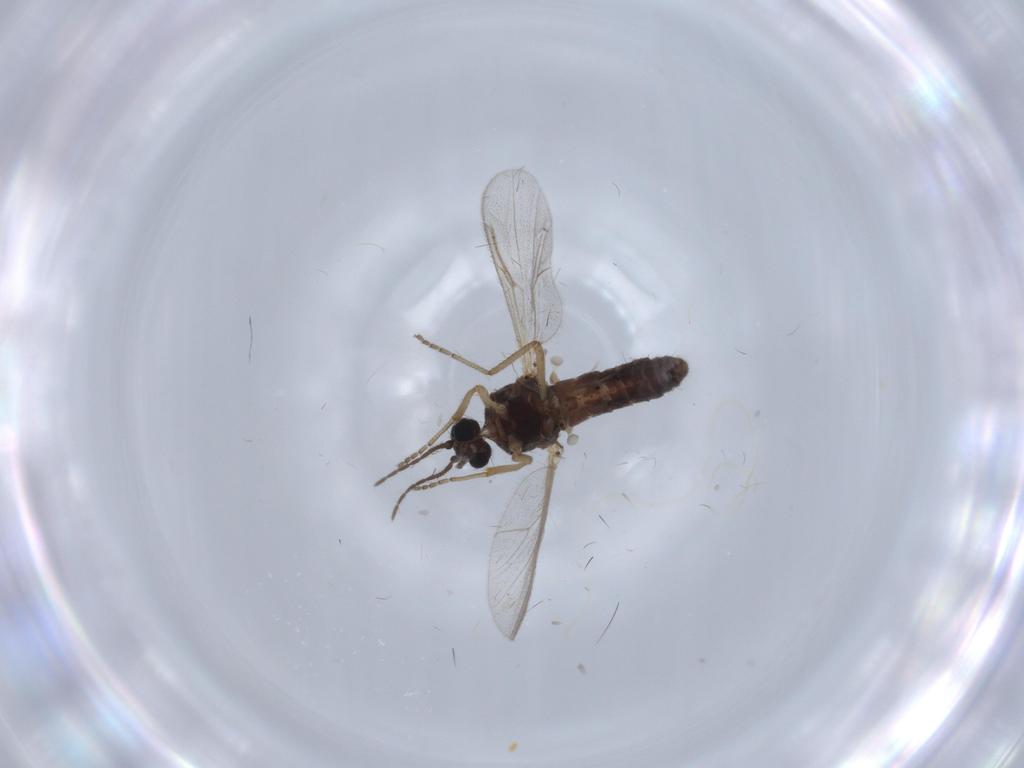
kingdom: Animalia
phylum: Arthropoda
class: Insecta
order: Diptera
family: Ceratopogonidae
